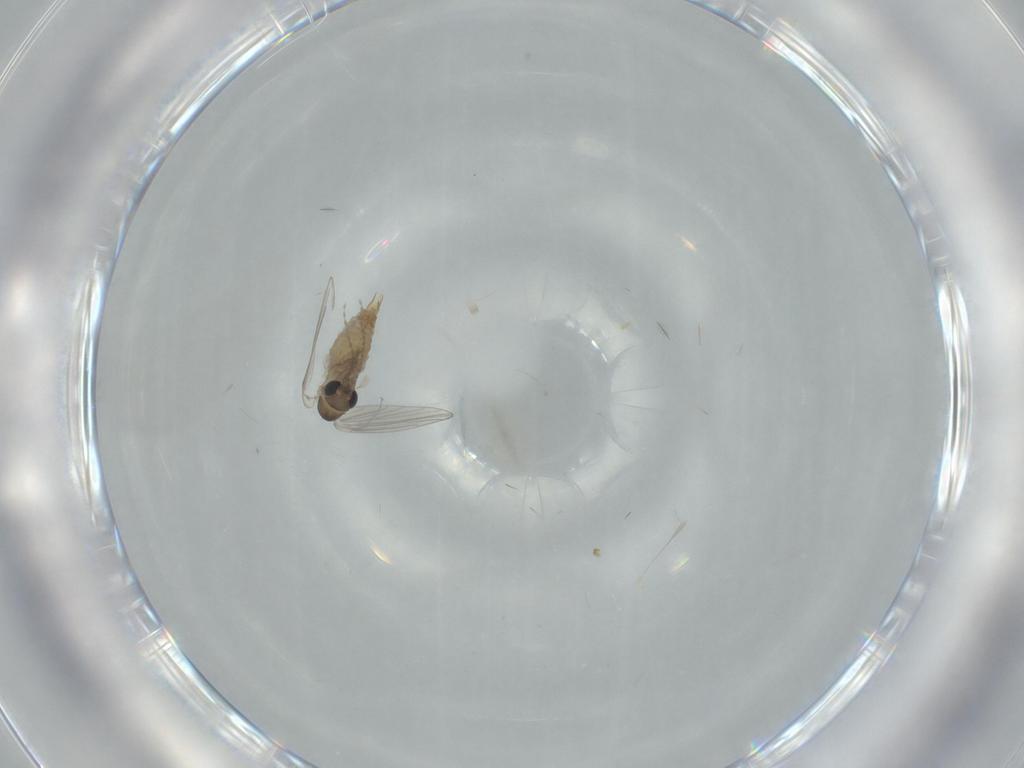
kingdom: Animalia
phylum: Arthropoda
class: Insecta
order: Diptera
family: Psychodidae
